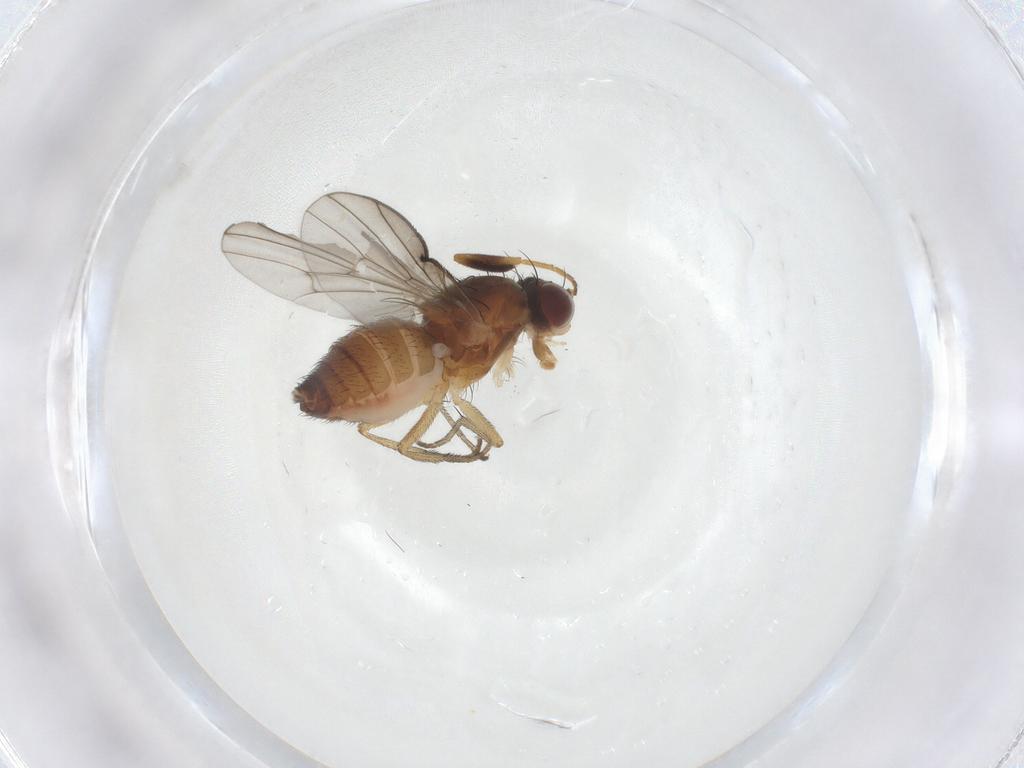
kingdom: Animalia
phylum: Arthropoda
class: Insecta
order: Diptera
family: Heleomyzidae
